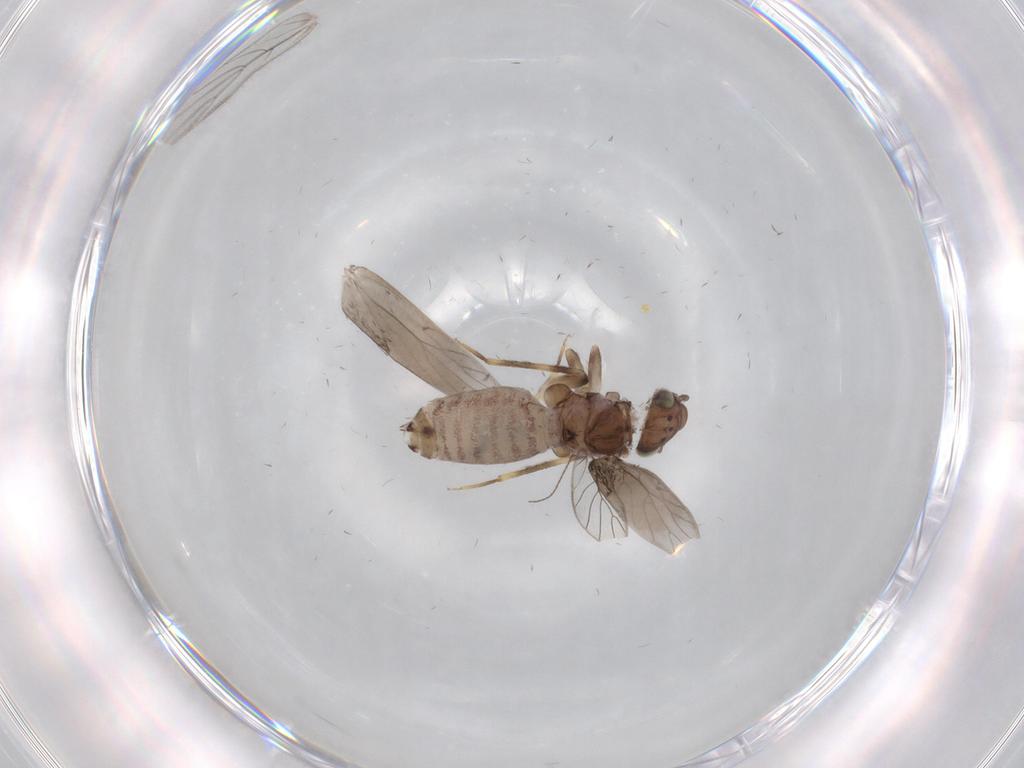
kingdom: Animalia
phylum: Arthropoda
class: Insecta
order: Psocodea
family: Lepidopsocidae
